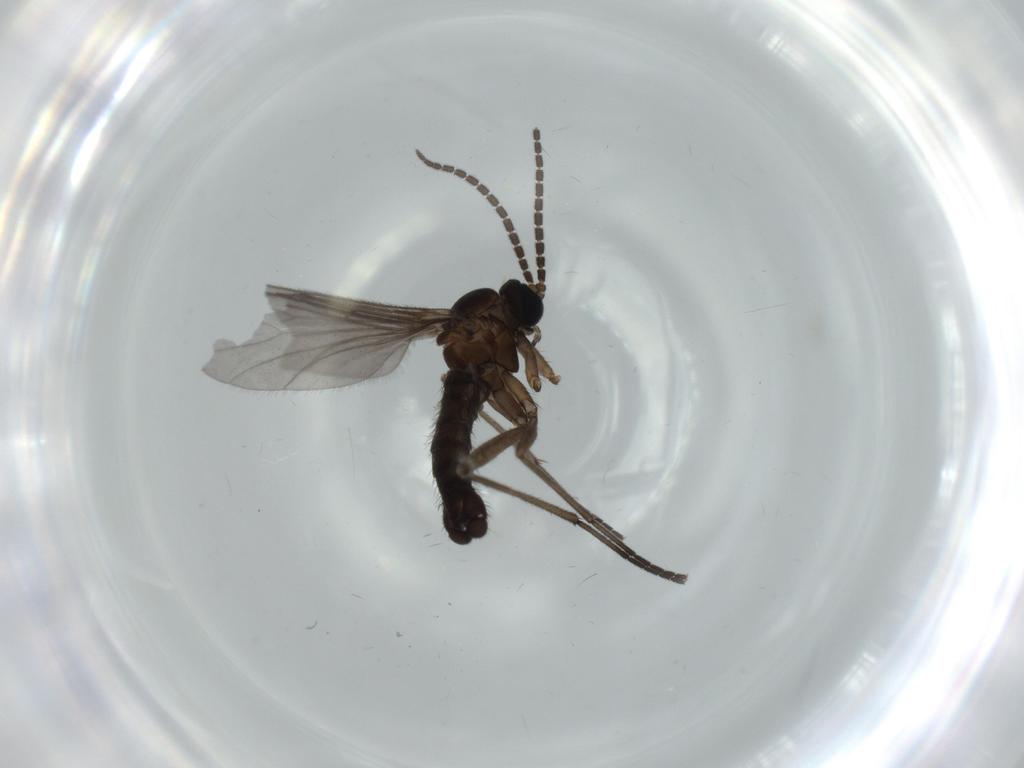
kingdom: Animalia
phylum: Arthropoda
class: Insecta
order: Diptera
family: Sciaridae
